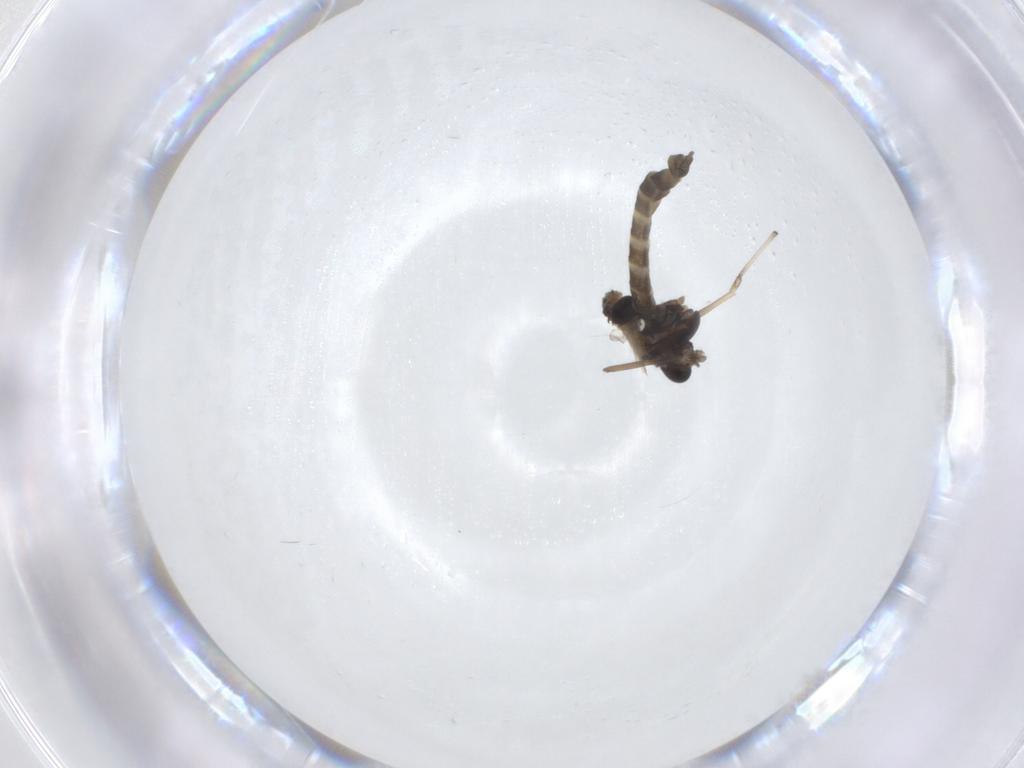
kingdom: Animalia
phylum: Arthropoda
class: Insecta
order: Diptera
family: Chironomidae
